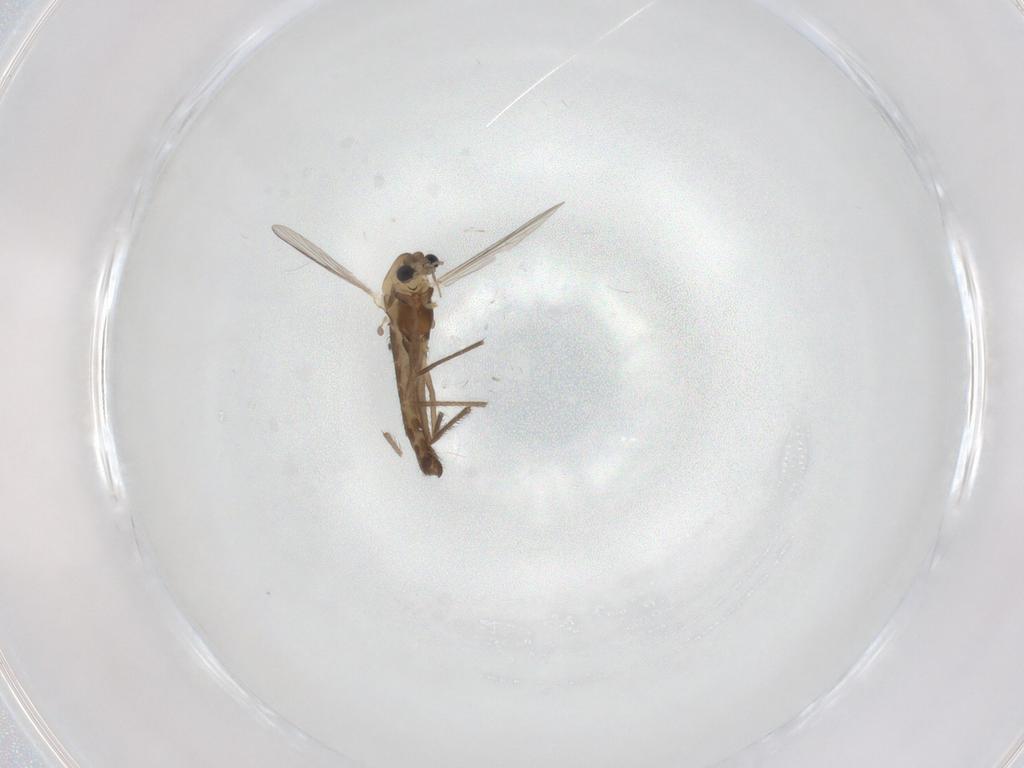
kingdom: Animalia
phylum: Arthropoda
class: Insecta
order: Diptera
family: Chironomidae
